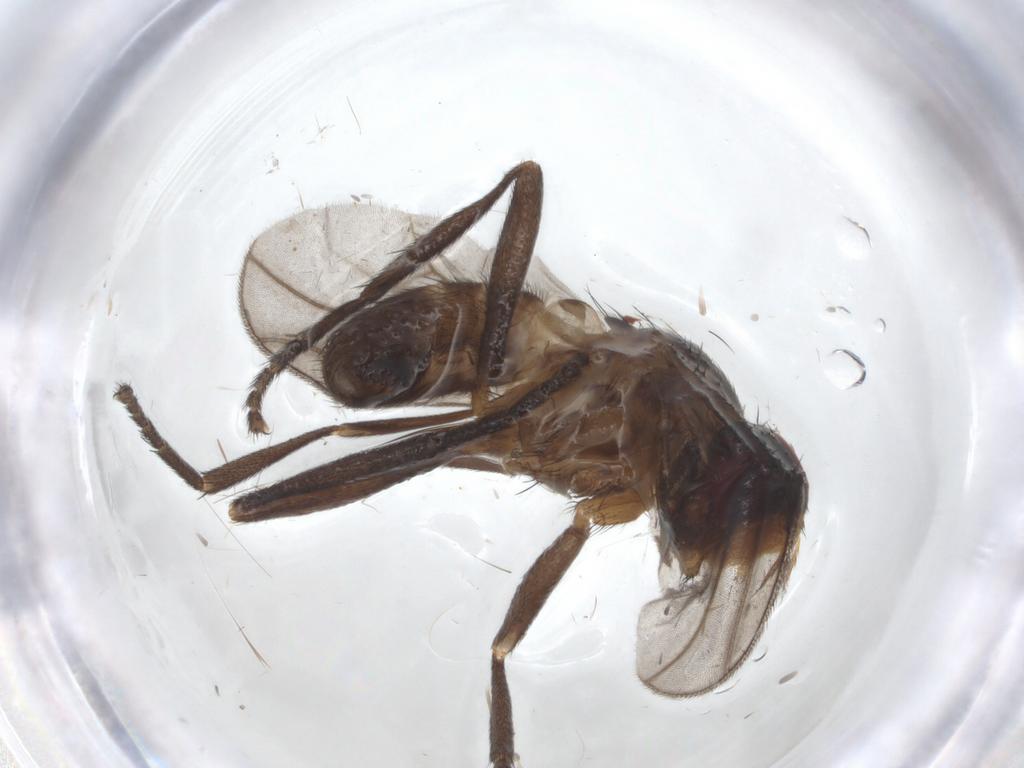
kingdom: Animalia
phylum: Arthropoda
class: Insecta
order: Diptera
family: Calliphoridae
